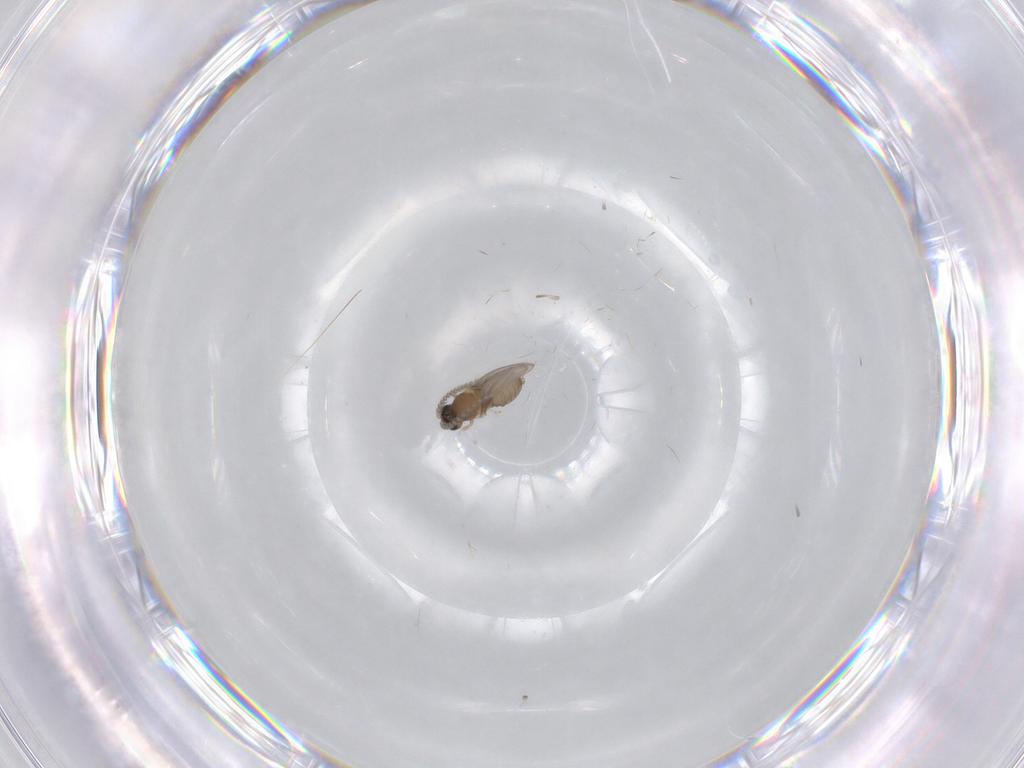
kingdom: Animalia
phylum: Arthropoda
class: Insecta
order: Diptera
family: Cecidomyiidae
